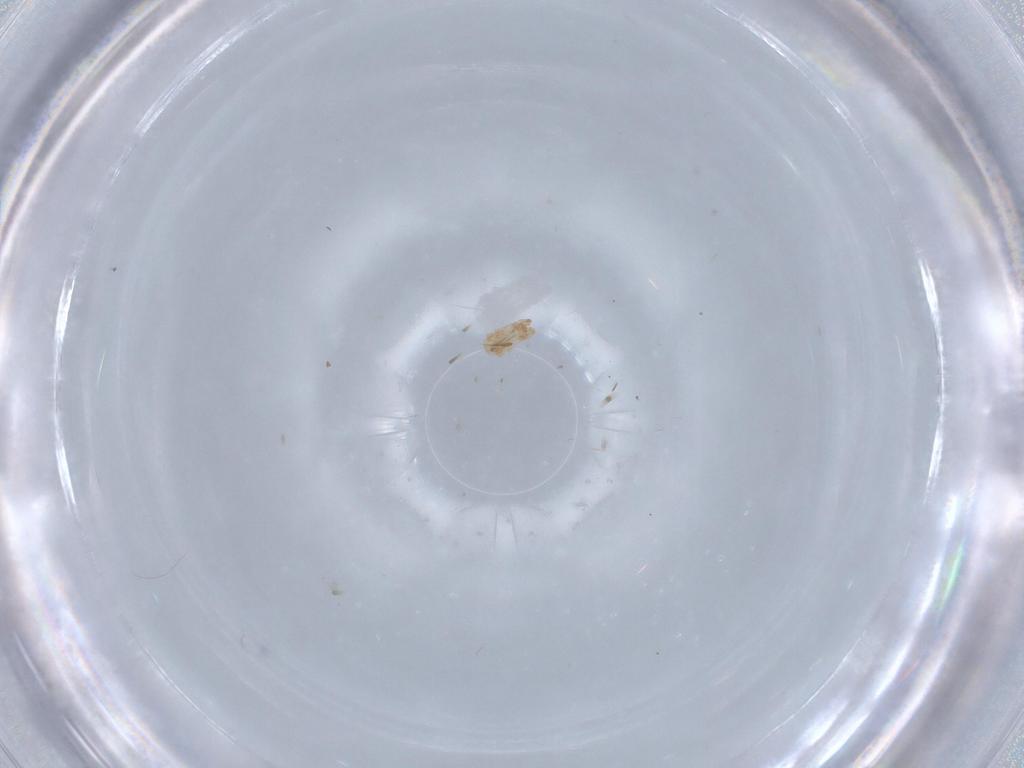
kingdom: Animalia
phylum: Arthropoda
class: Arachnida
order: Mesostigmata
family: Digamasellidae
